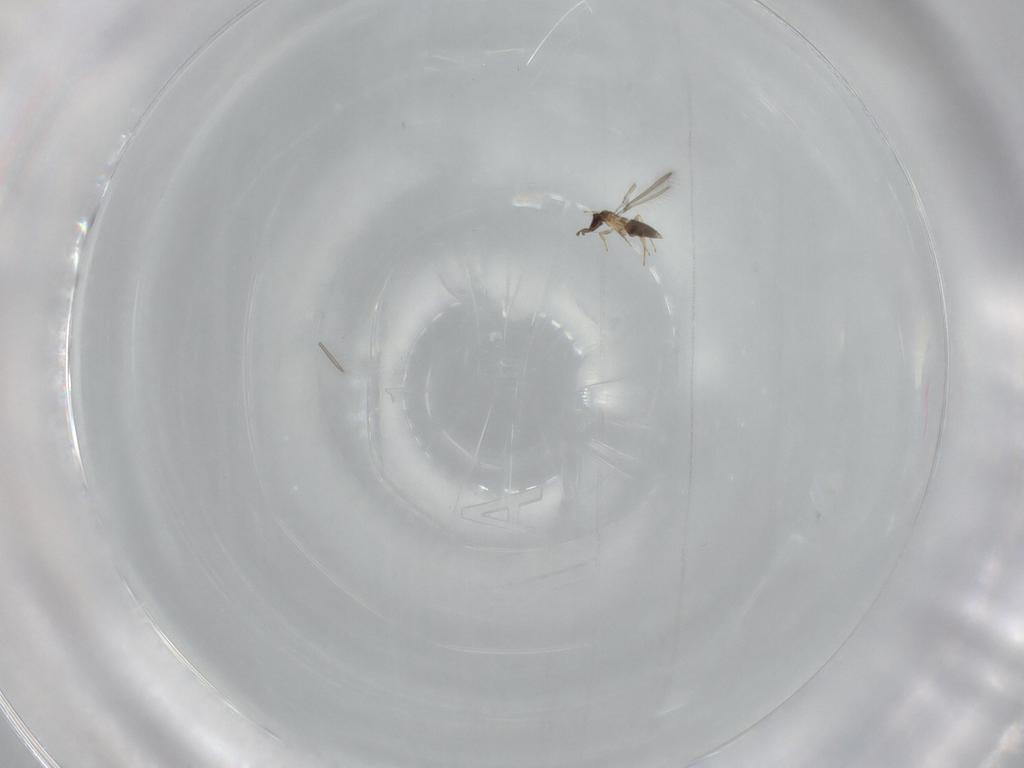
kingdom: Animalia
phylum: Arthropoda
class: Insecta
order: Hymenoptera
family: Mymaridae
